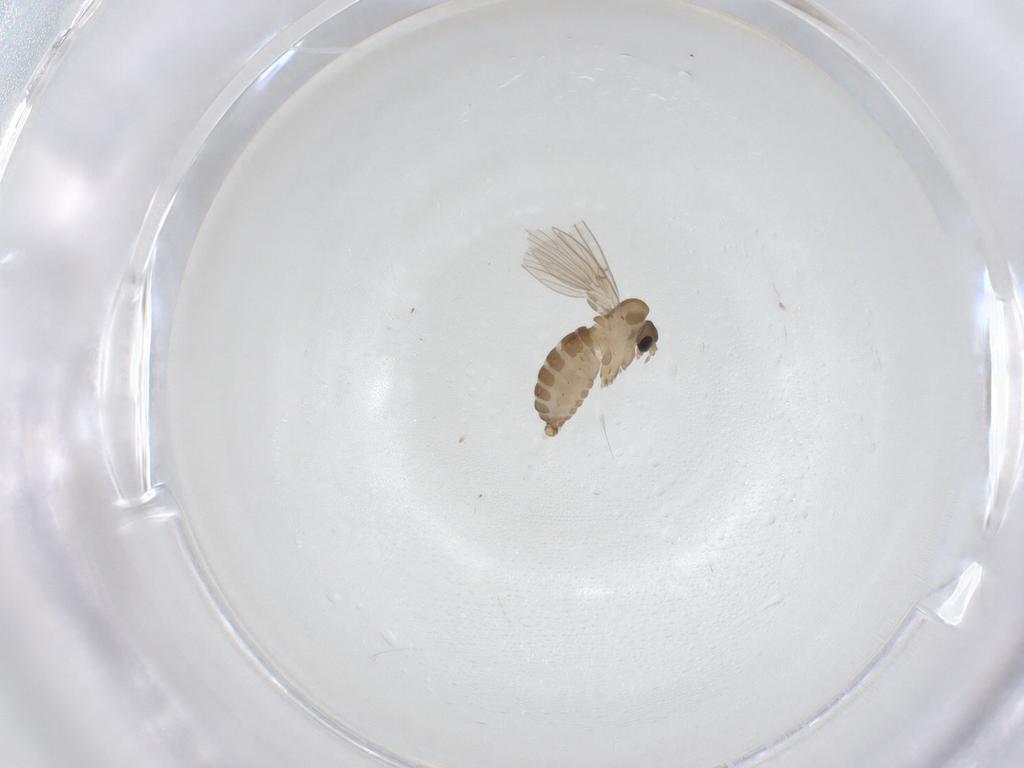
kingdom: Animalia
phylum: Arthropoda
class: Insecta
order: Diptera
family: Psychodidae
